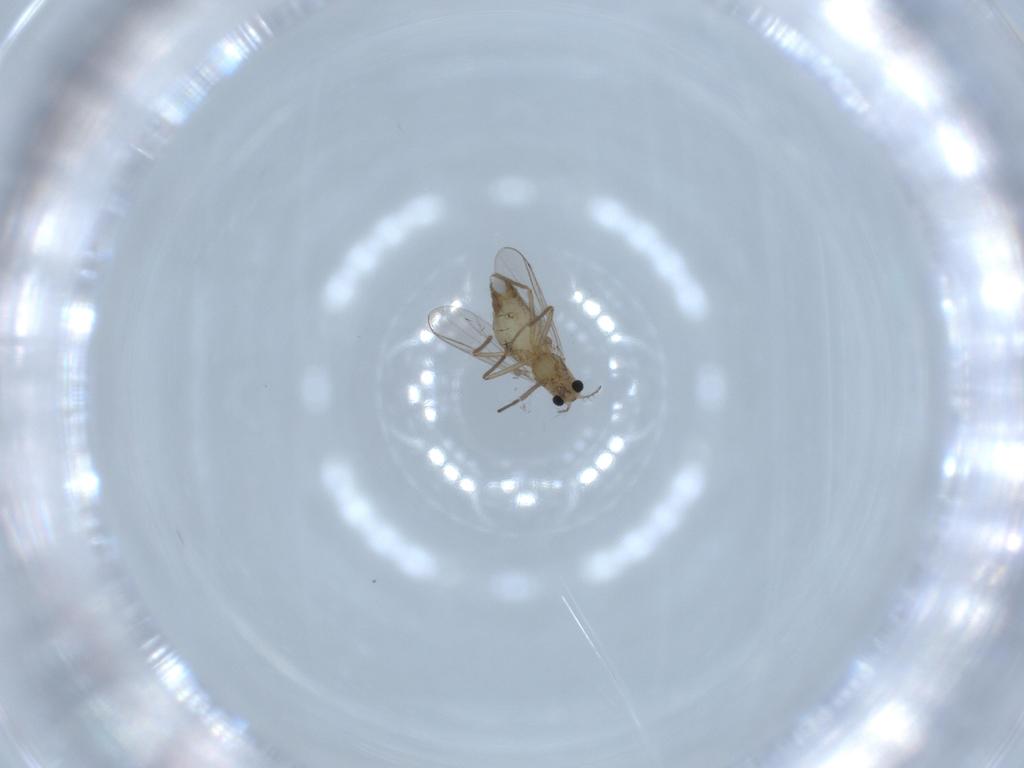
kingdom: Animalia
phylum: Arthropoda
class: Insecta
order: Diptera
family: Chironomidae
